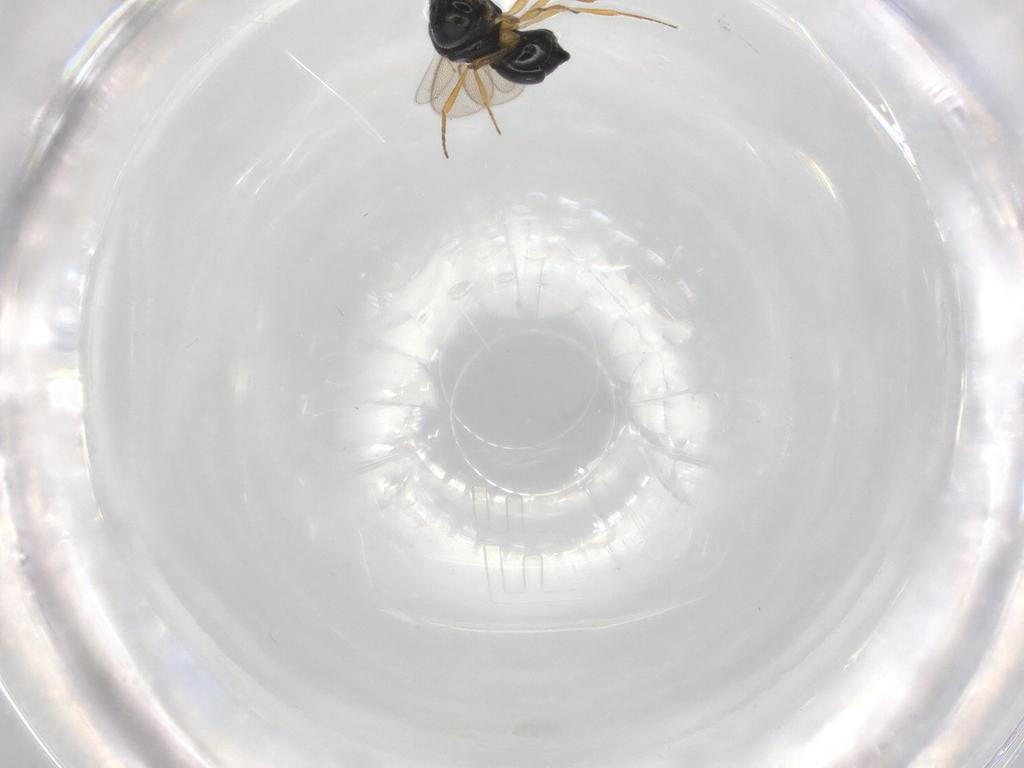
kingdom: Animalia
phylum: Arthropoda
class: Insecta
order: Hymenoptera
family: Scelionidae
